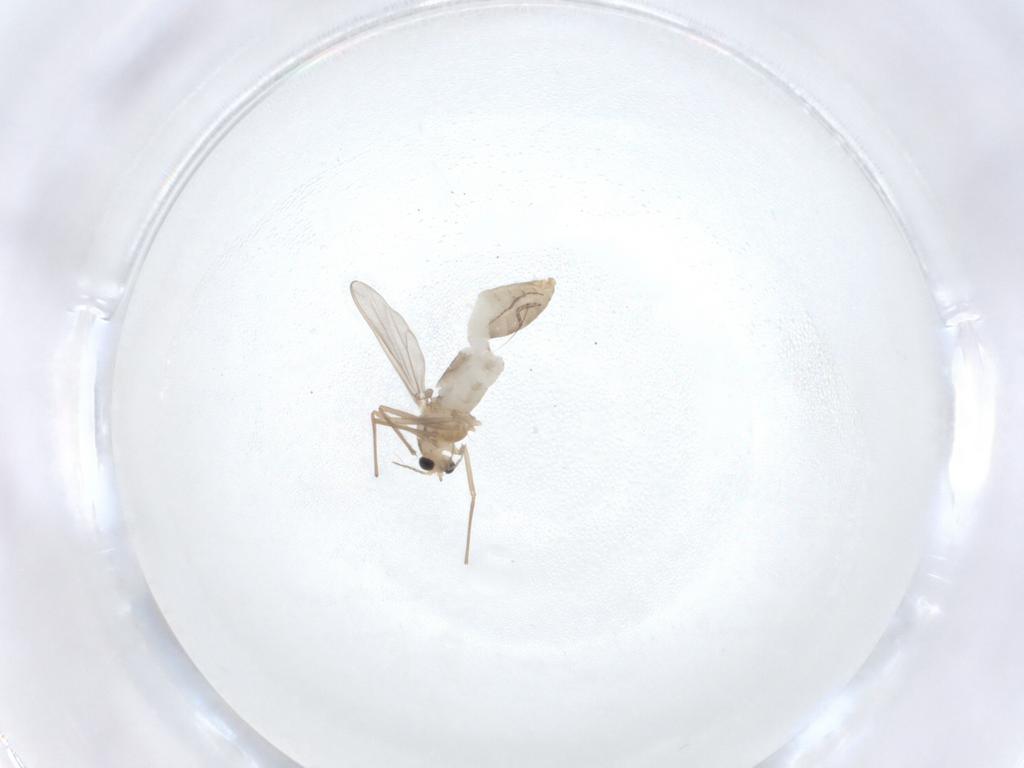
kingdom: Animalia
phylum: Arthropoda
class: Insecta
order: Diptera
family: Chironomidae
